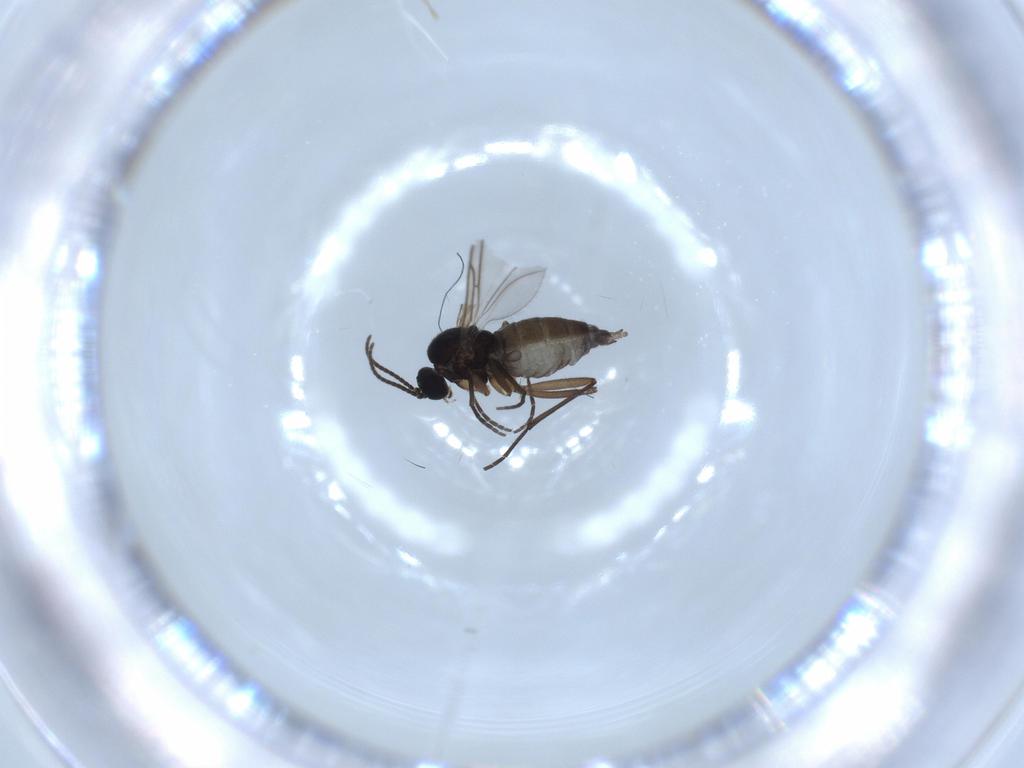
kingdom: Animalia
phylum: Arthropoda
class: Insecta
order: Diptera
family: Sciaridae
